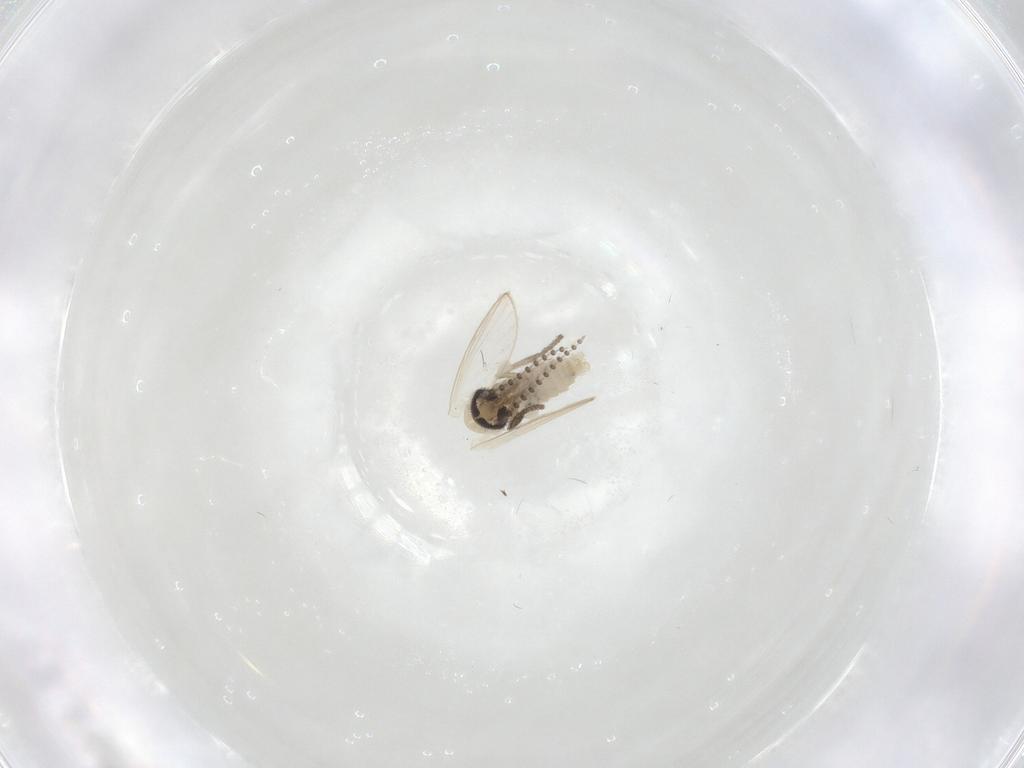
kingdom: Animalia
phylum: Arthropoda
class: Insecta
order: Diptera
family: Psychodidae
